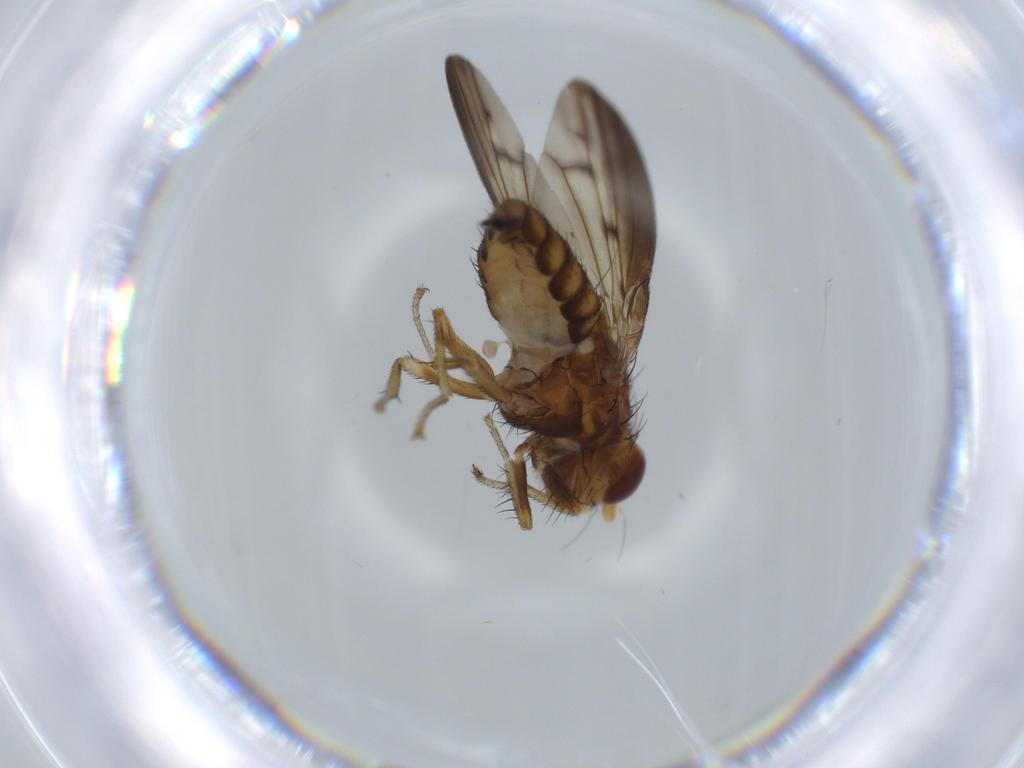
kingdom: Animalia
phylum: Arthropoda
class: Insecta
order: Diptera
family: Lauxaniidae
